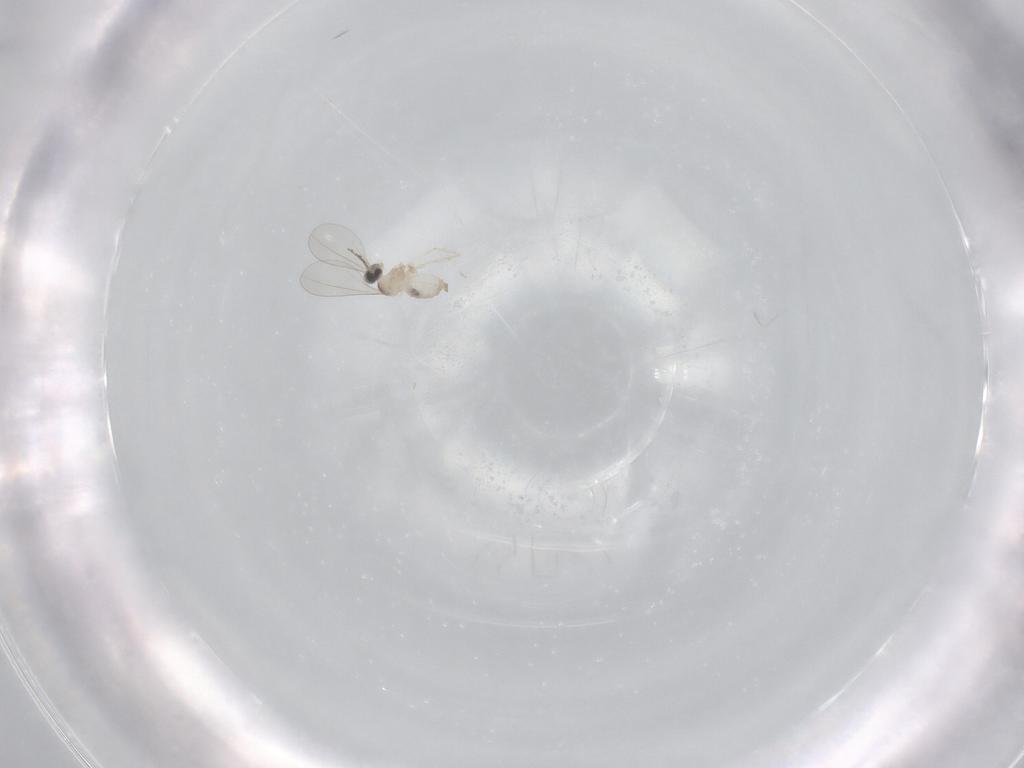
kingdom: Animalia
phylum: Arthropoda
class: Insecta
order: Diptera
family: Cecidomyiidae
